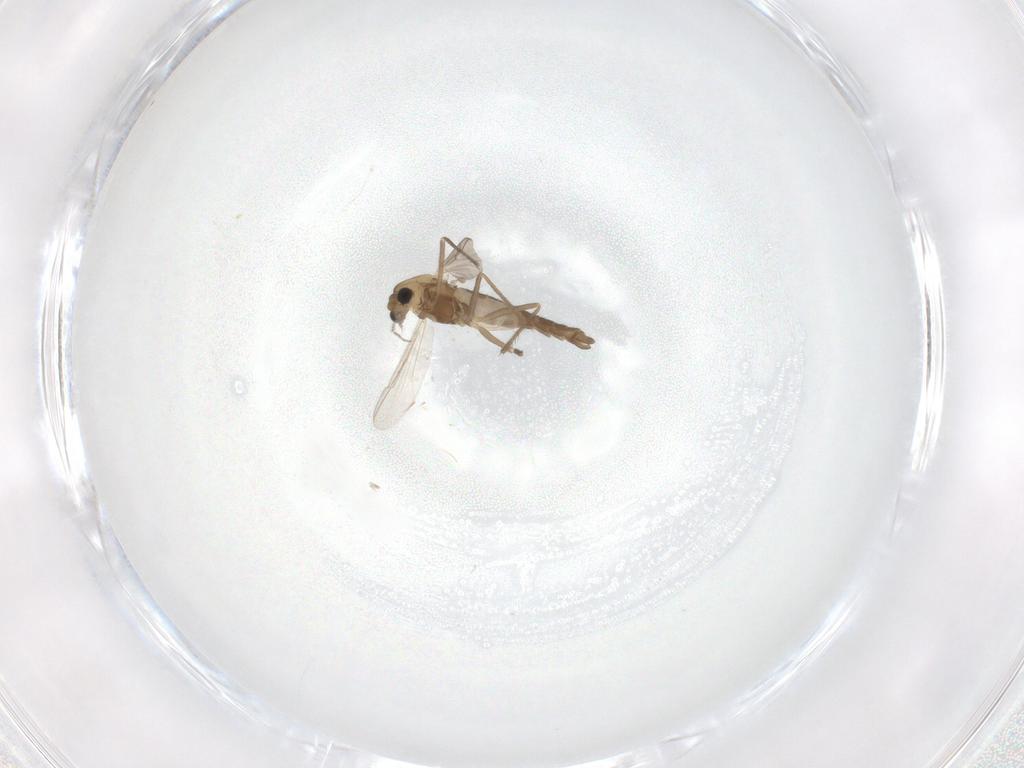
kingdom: Animalia
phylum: Arthropoda
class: Insecta
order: Diptera
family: Chironomidae
